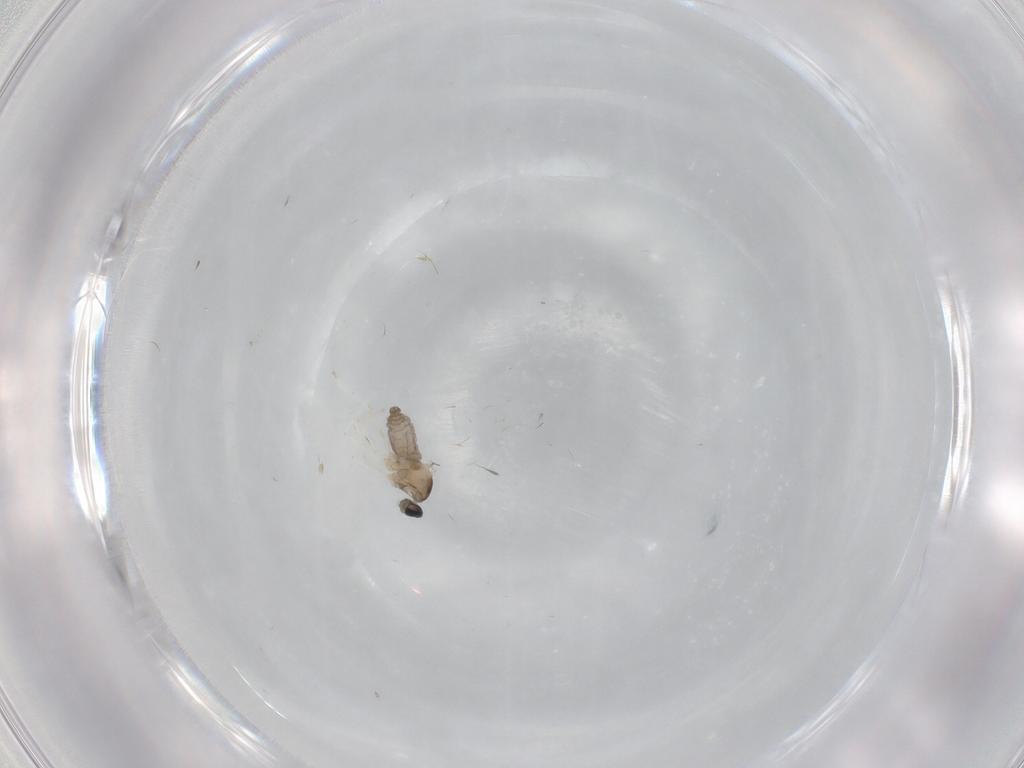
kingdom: Animalia
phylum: Arthropoda
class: Insecta
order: Diptera
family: Cecidomyiidae
